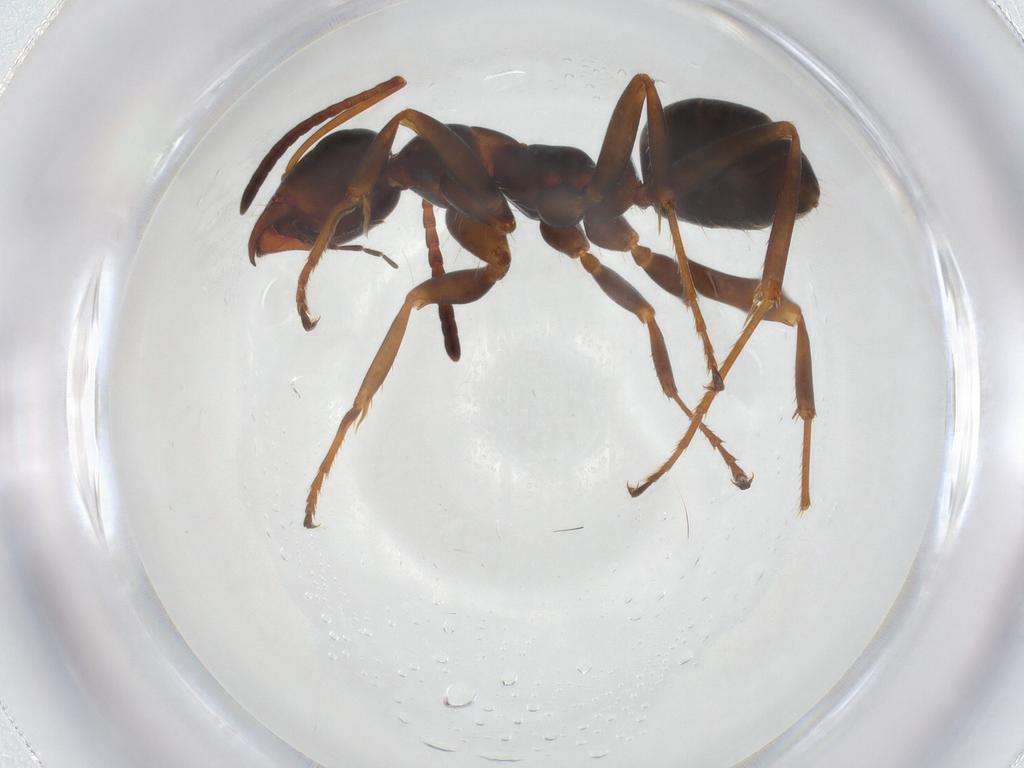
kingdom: Animalia
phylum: Arthropoda
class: Insecta
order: Hymenoptera
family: Formicidae
